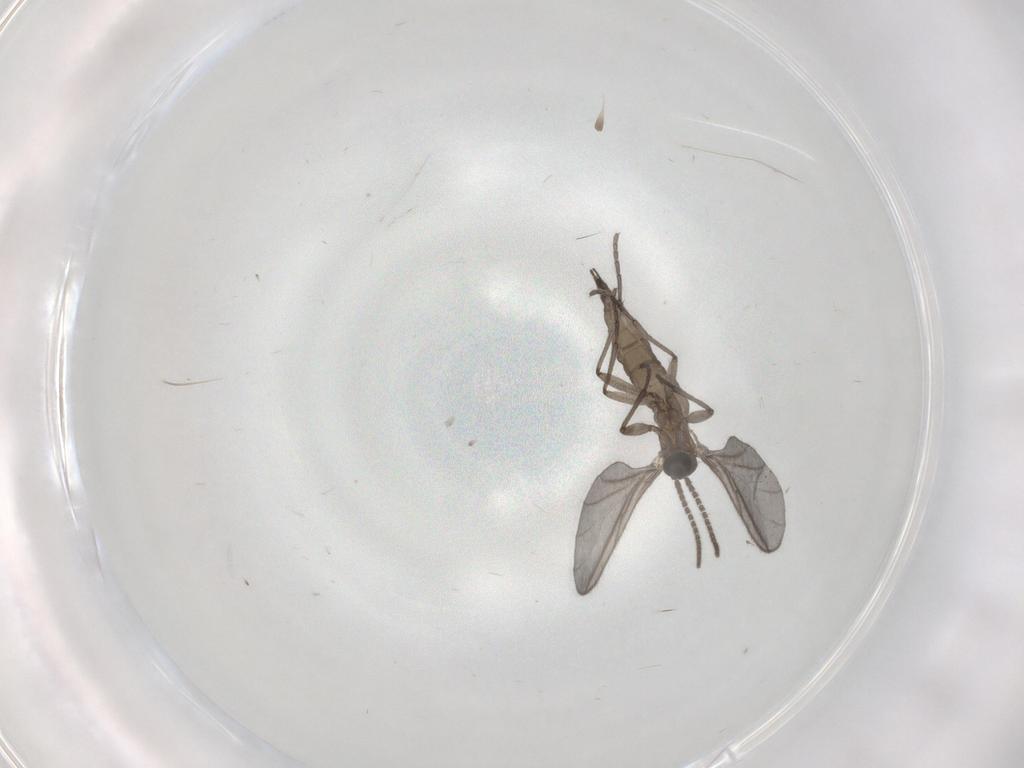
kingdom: Animalia
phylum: Arthropoda
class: Insecta
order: Diptera
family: Sciaridae
